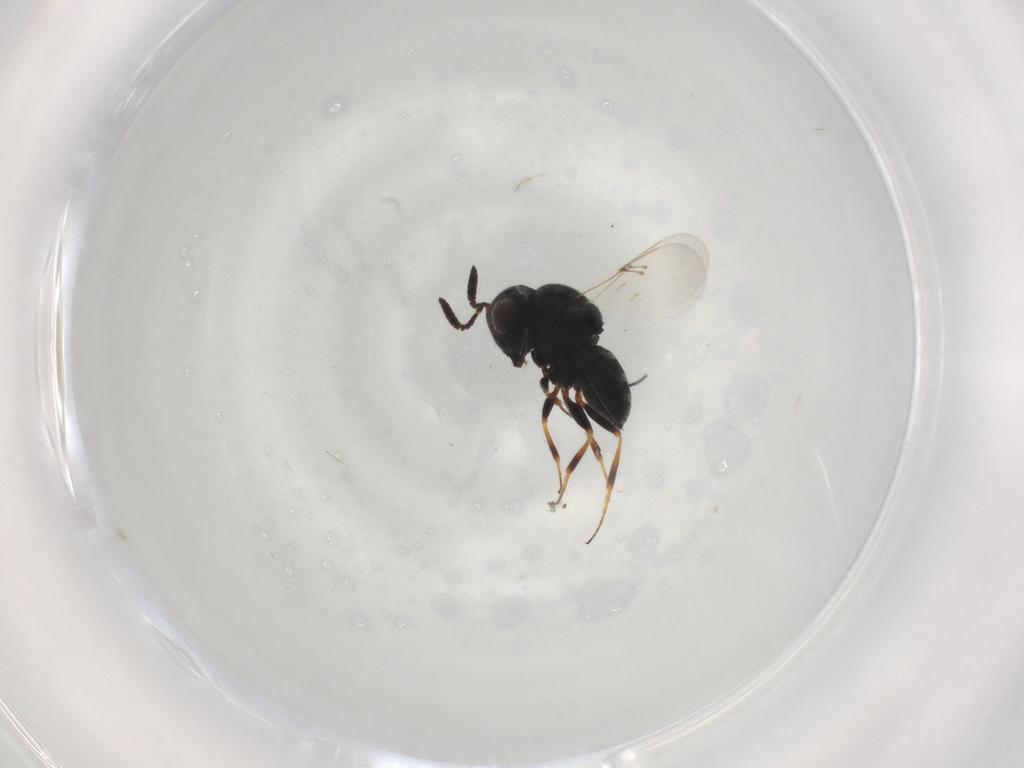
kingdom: Animalia
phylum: Arthropoda
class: Insecta
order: Hymenoptera
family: Scelionidae
